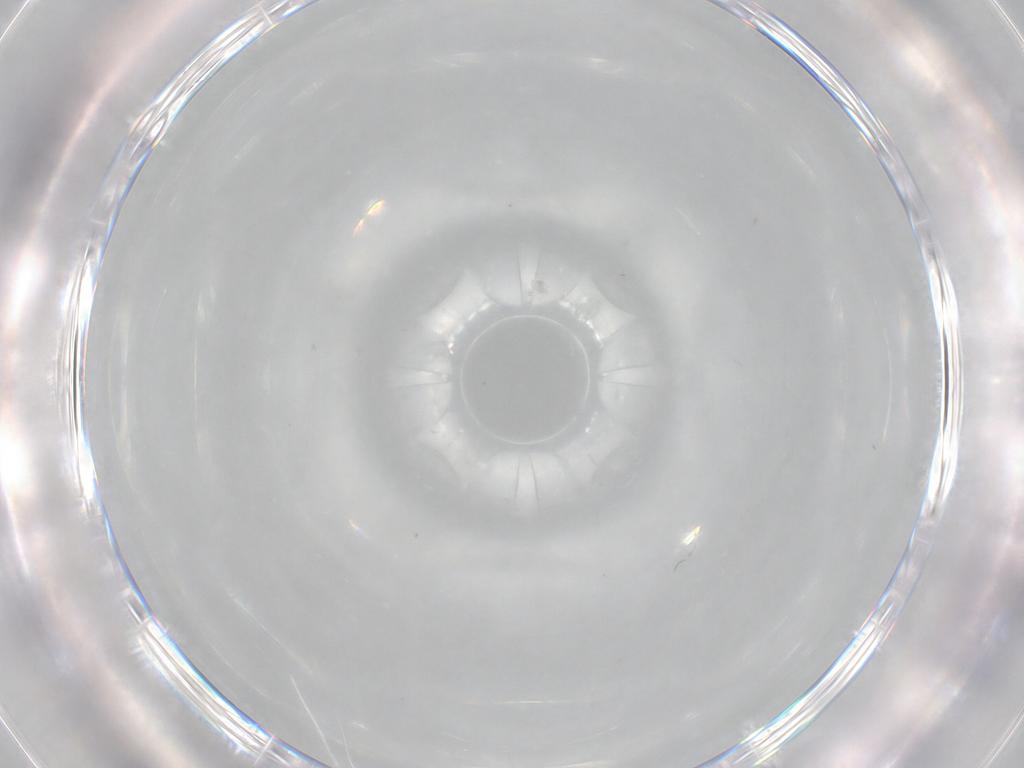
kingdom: Animalia
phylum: Arthropoda
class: Insecta
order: Diptera
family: Cecidomyiidae
